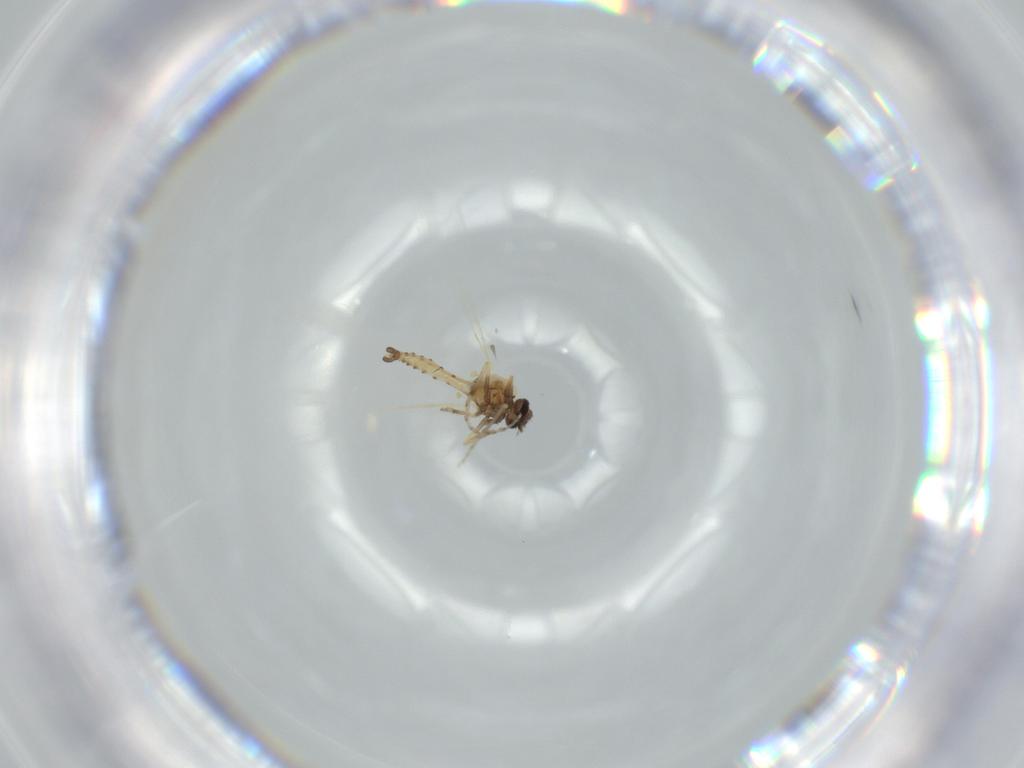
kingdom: Animalia
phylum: Arthropoda
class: Insecta
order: Diptera
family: Ceratopogonidae
